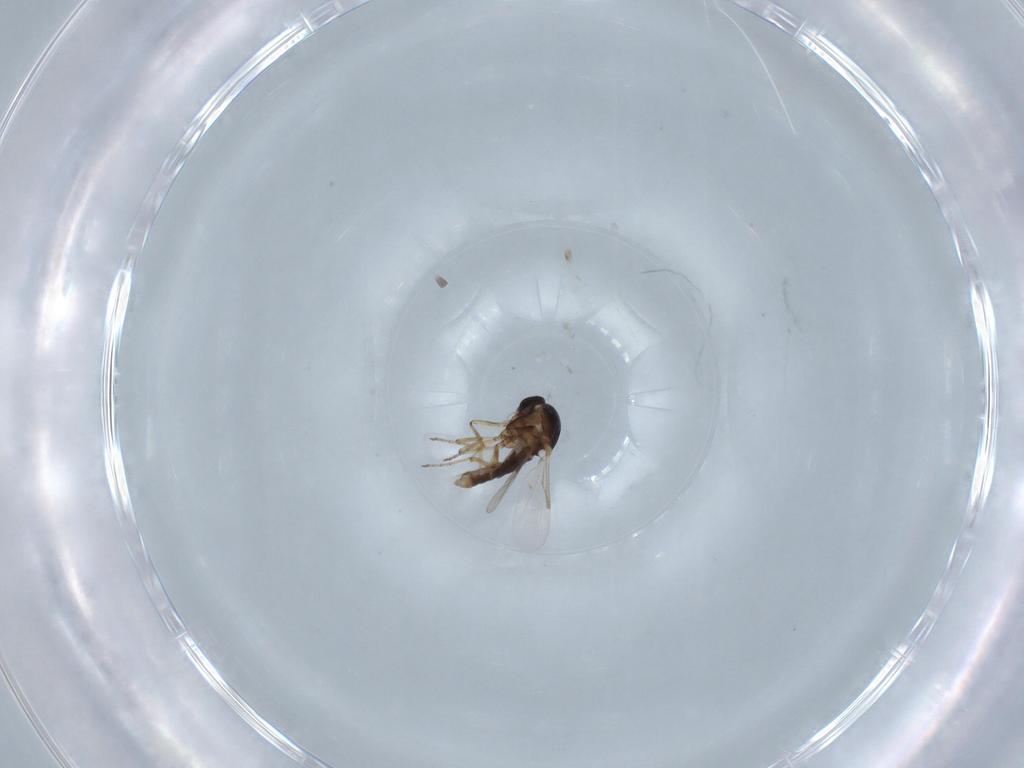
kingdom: Animalia
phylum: Arthropoda
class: Insecta
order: Diptera
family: Ceratopogonidae
